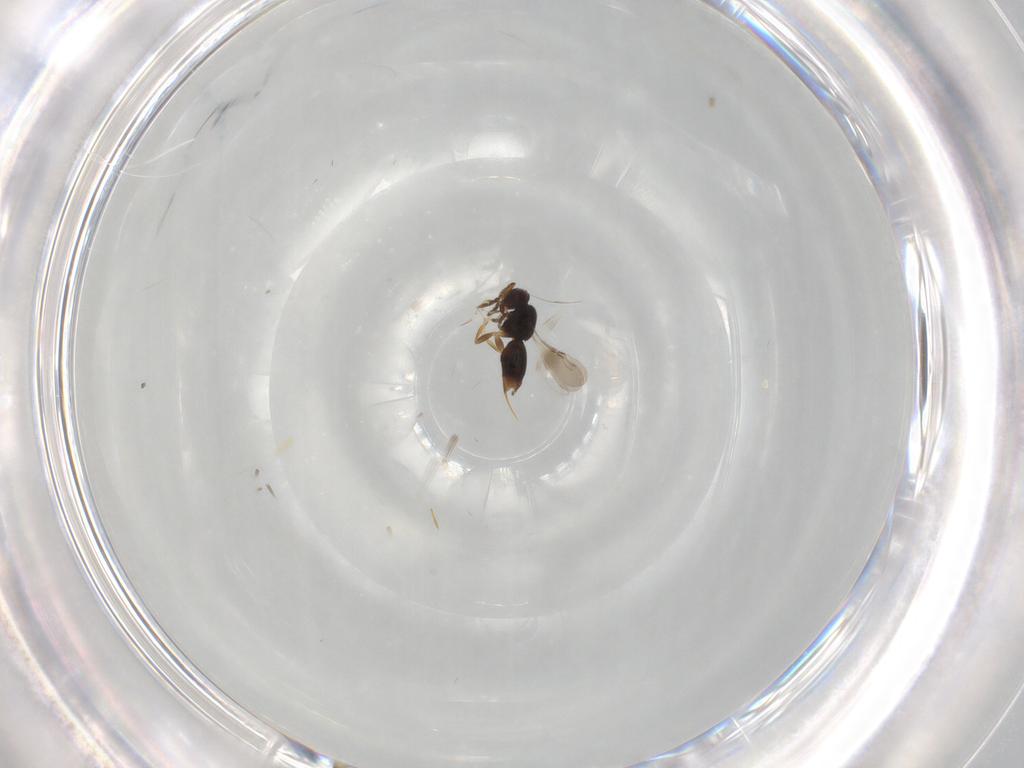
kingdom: Animalia
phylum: Arthropoda
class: Insecta
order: Hymenoptera
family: Scelionidae
